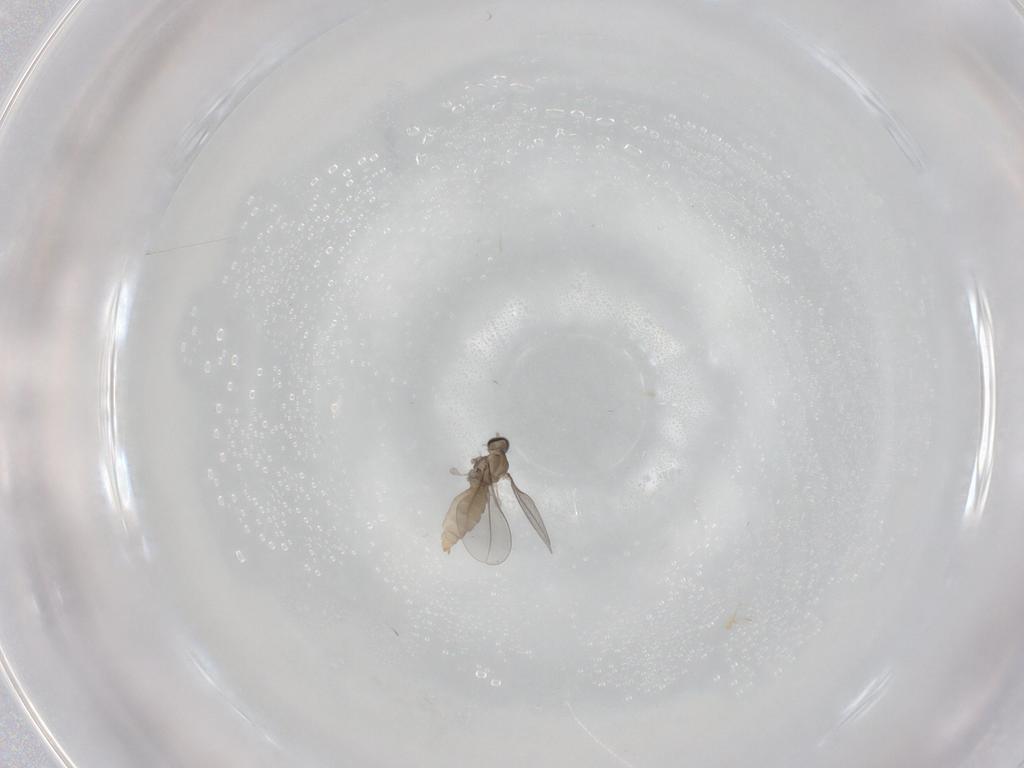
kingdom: Animalia
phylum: Arthropoda
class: Insecta
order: Diptera
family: Cecidomyiidae
